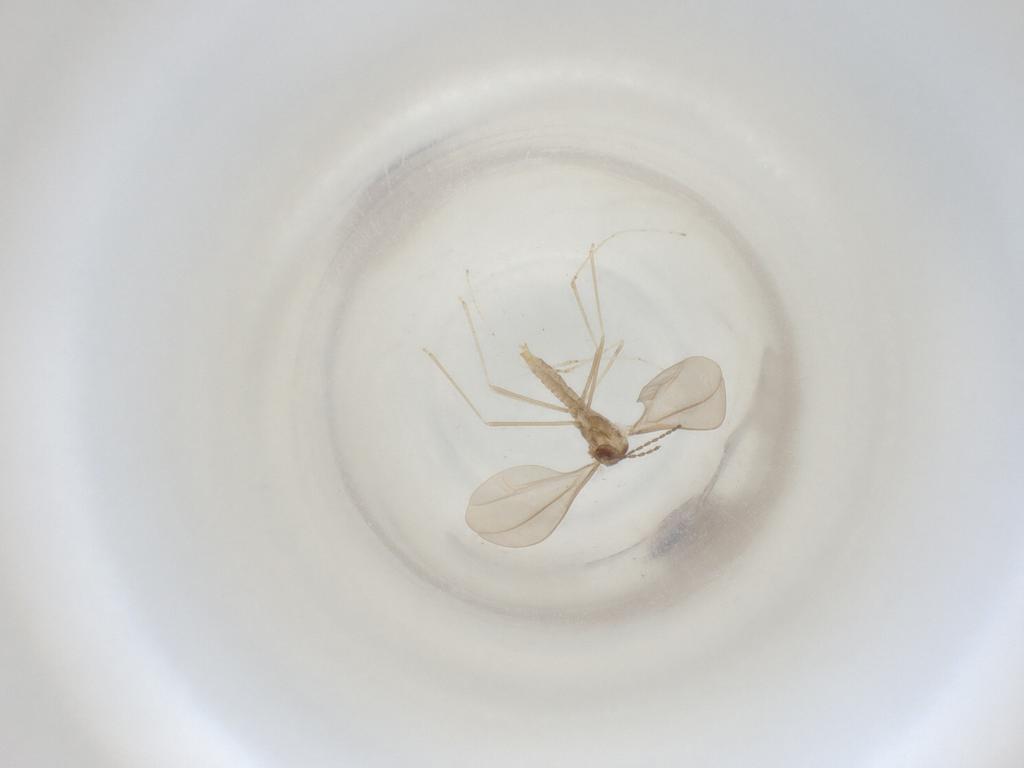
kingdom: Animalia
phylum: Arthropoda
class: Insecta
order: Diptera
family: Cecidomyiidae
